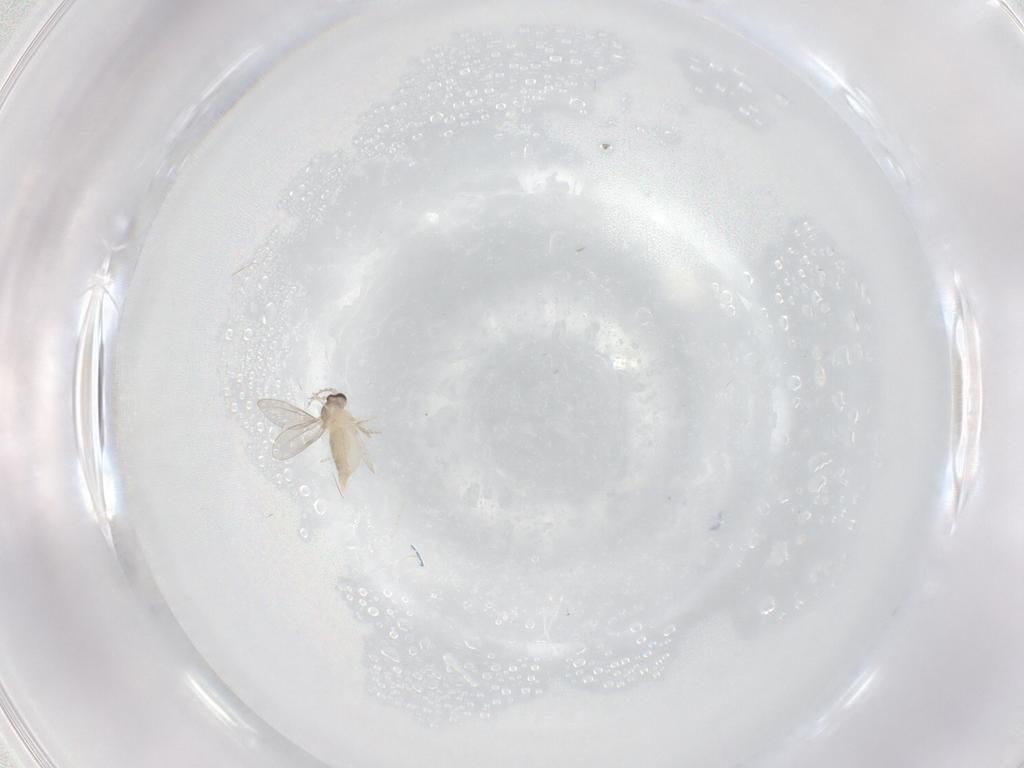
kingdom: Animalia
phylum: Arthropoda
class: Insecta
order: Diptera
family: Cecidomyiidae
